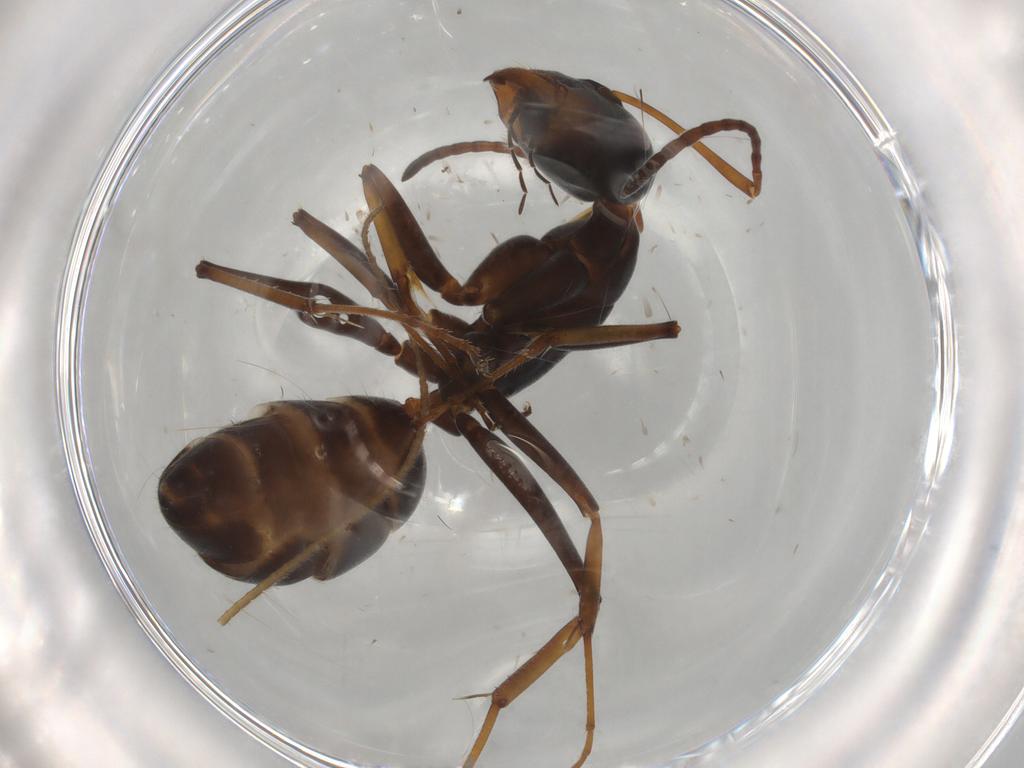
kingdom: Animalia
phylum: Arthropoda
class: Insecta
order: Hymenoptera
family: Formicidae
